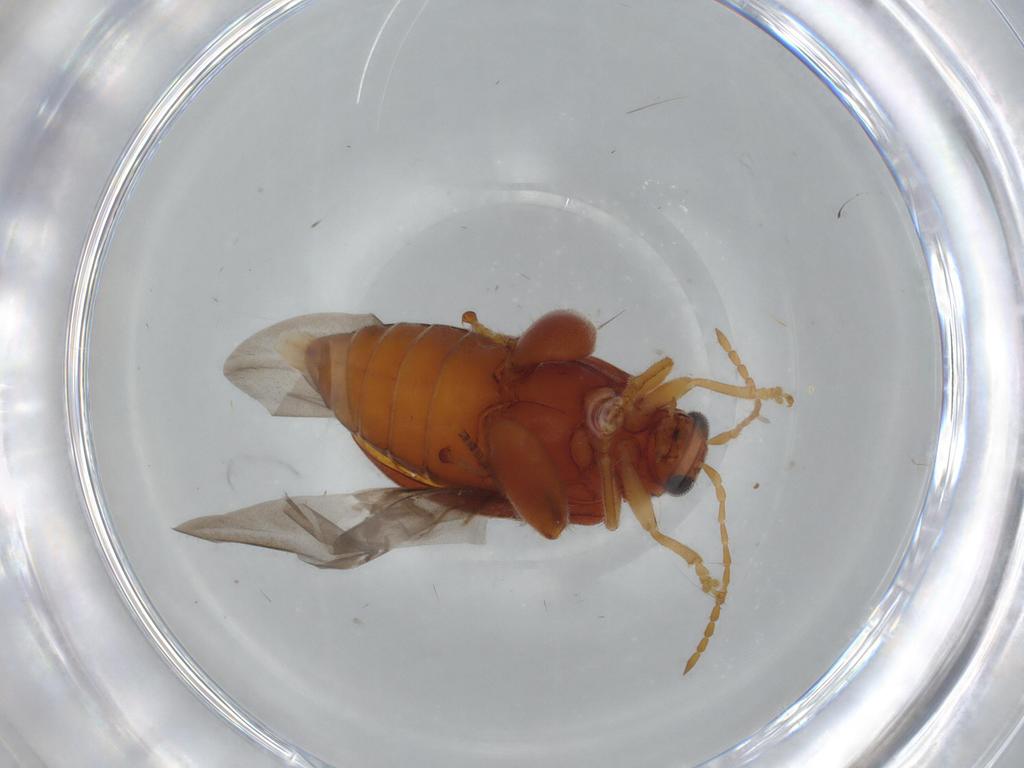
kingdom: Animalia
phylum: Arthropoda
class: Insecta
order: Coleoptera
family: Chrysomelidae
